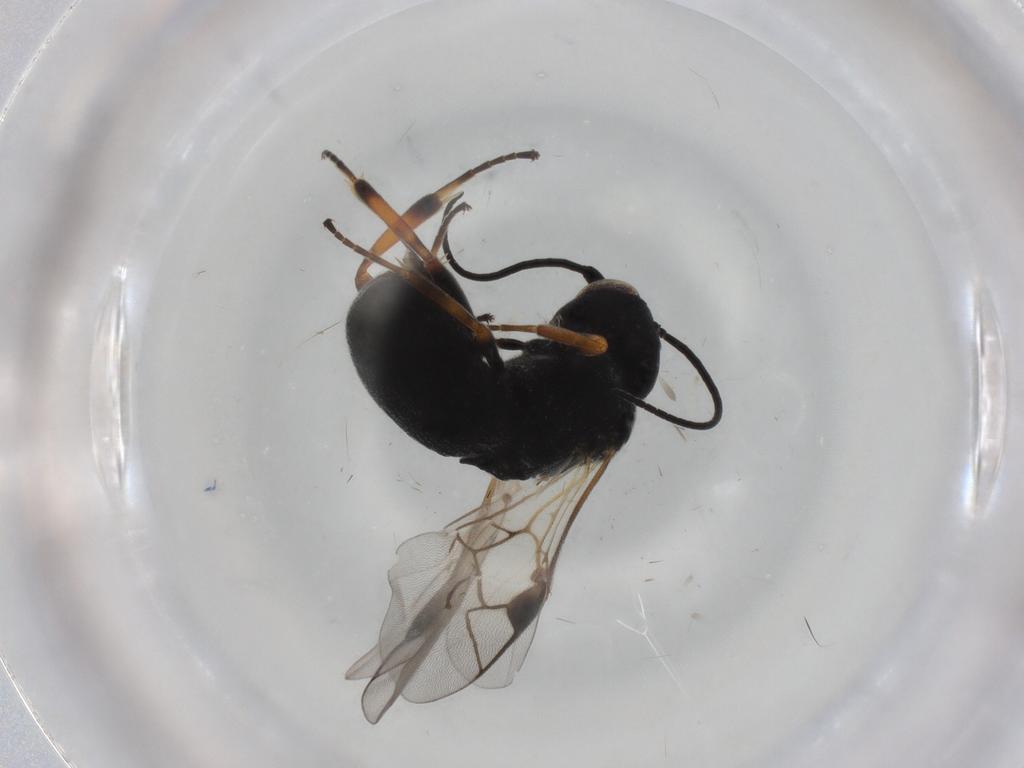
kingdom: Animalia
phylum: Arthropoda
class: Insecta
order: Hymenoptera
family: Braconidae
